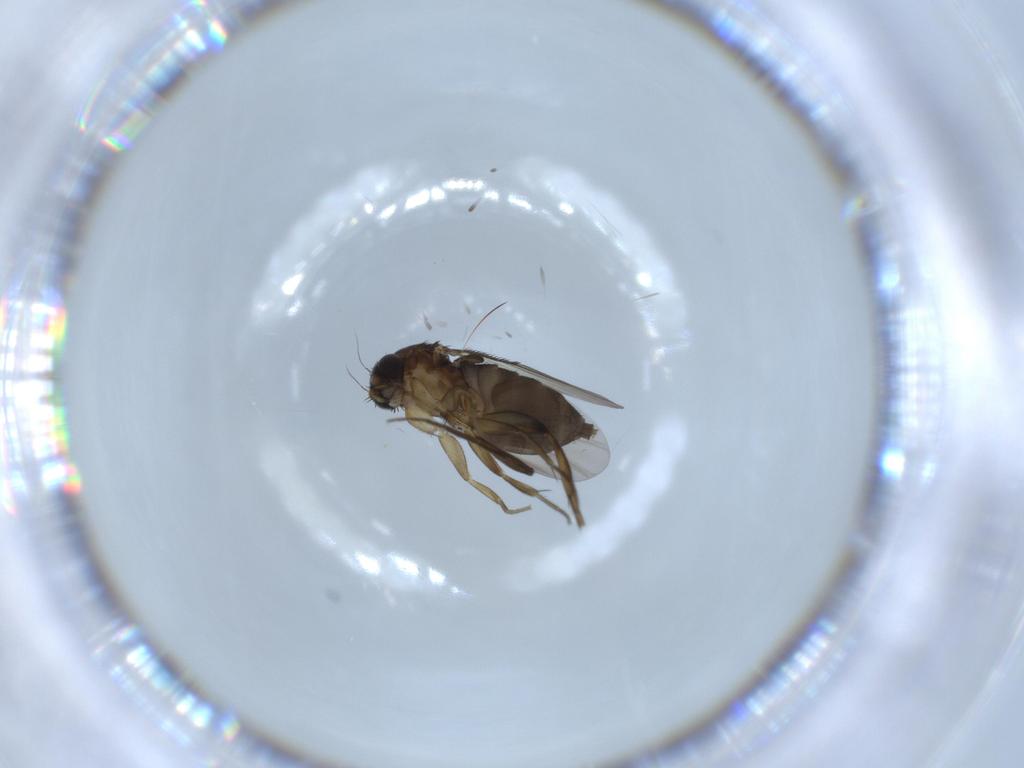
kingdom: Animalia
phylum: Arthropoda
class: Insecta
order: Diptera
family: Phoridae
